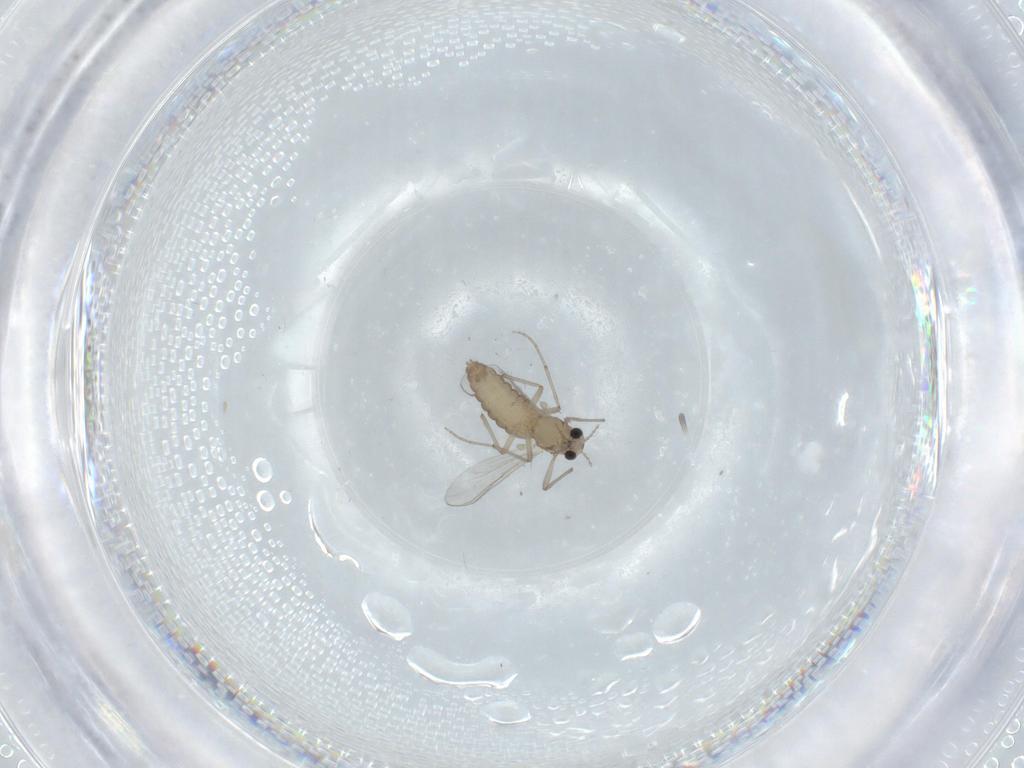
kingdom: Animalia
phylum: Arthropoda
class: Insecta
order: Diptera
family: Chironomidae
